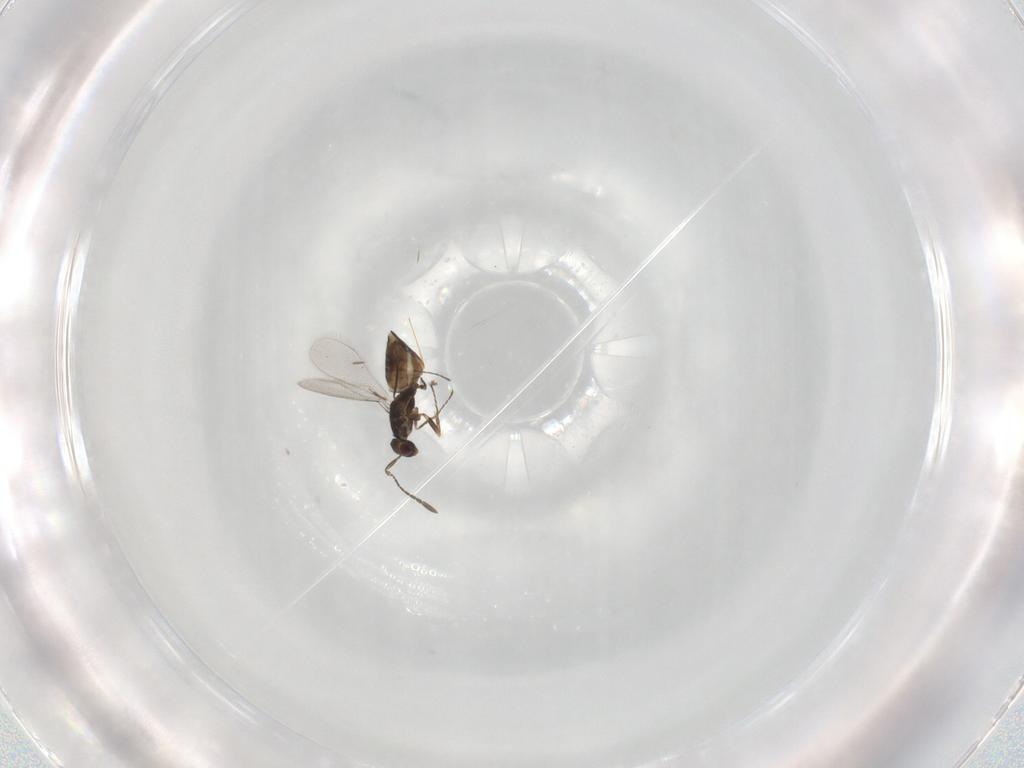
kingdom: Animalia
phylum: Arthropoda
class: Insecta
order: Hymenoptera
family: Braconidae
